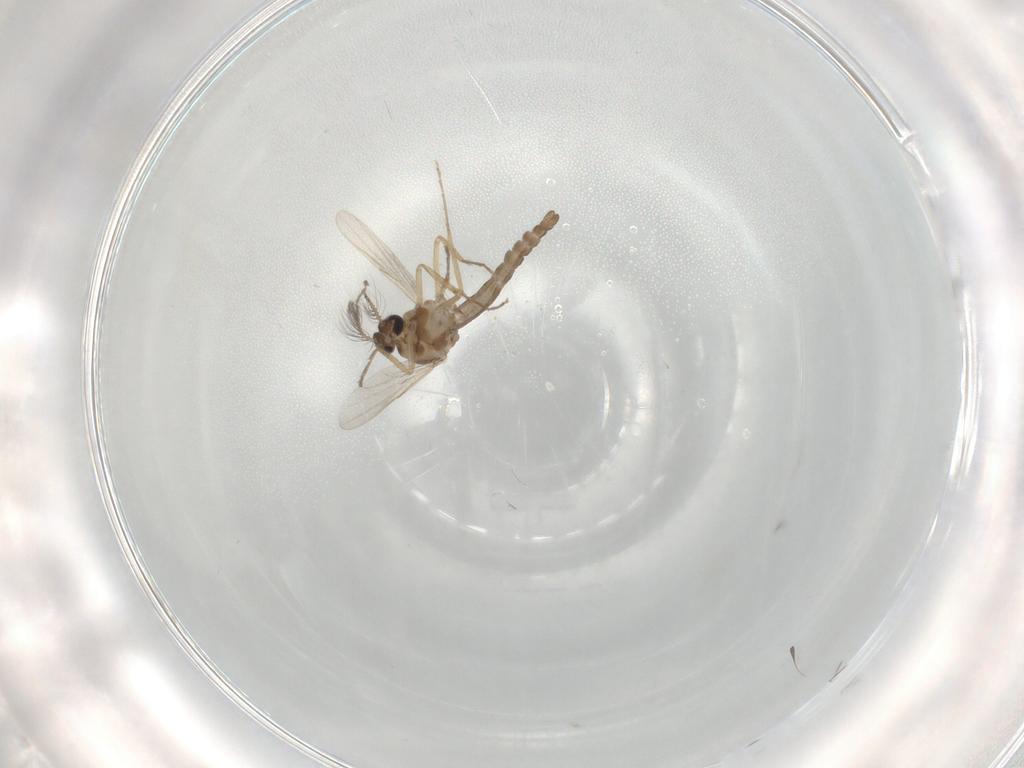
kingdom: Animalia
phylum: Arthropoda
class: Insecta
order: Diptera
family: Ceratopogonidae
